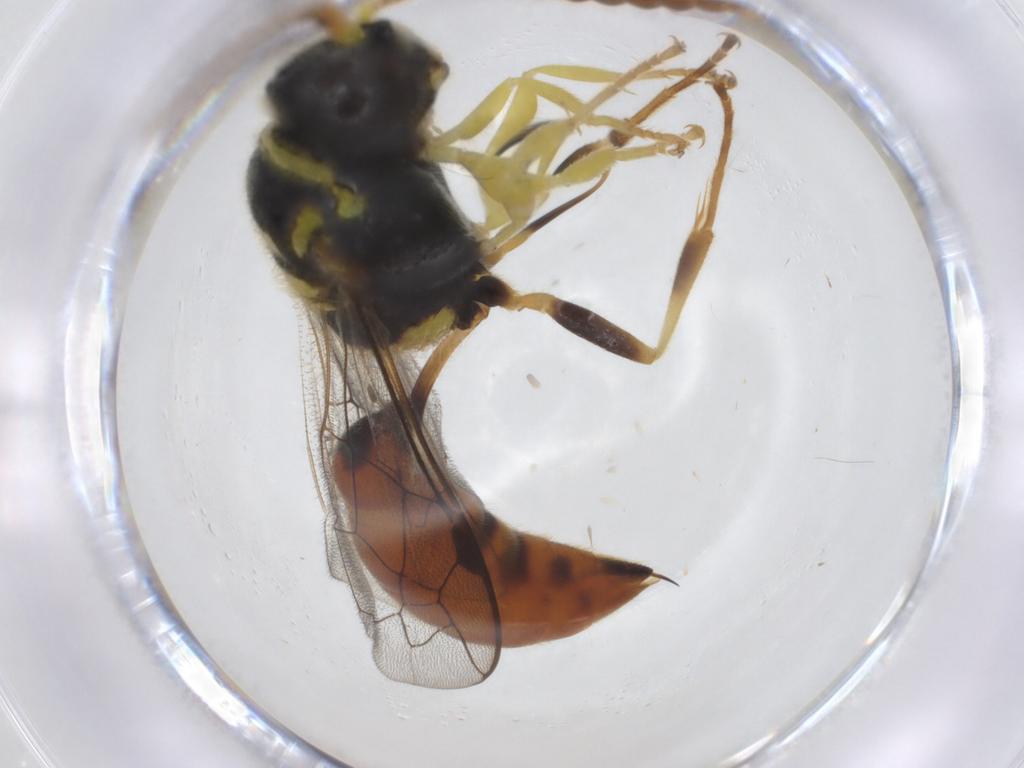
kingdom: Animalia
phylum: Arthropoda
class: Insecta
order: Hymenoptera
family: Crabronidae
